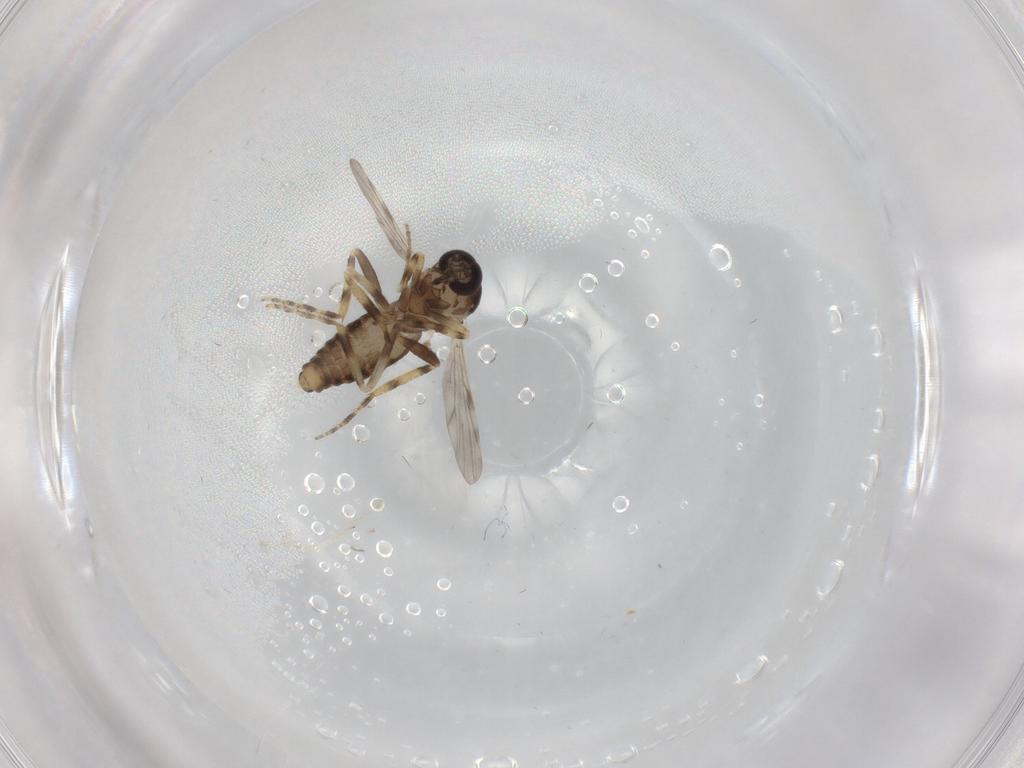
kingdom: Animalia
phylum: Arthropoda
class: Insecta
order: Diptera
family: Ceratopogonidae
